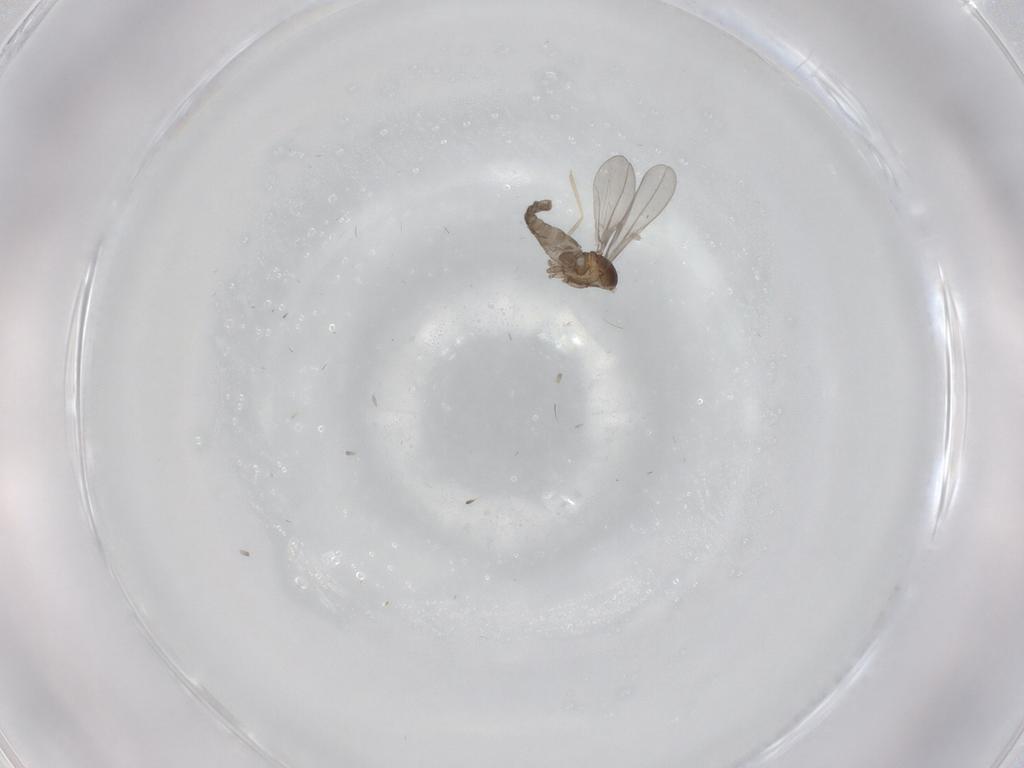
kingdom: Animalia
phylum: Arthropoda
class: Insecta
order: Diptera
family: Cecidomyiidae
